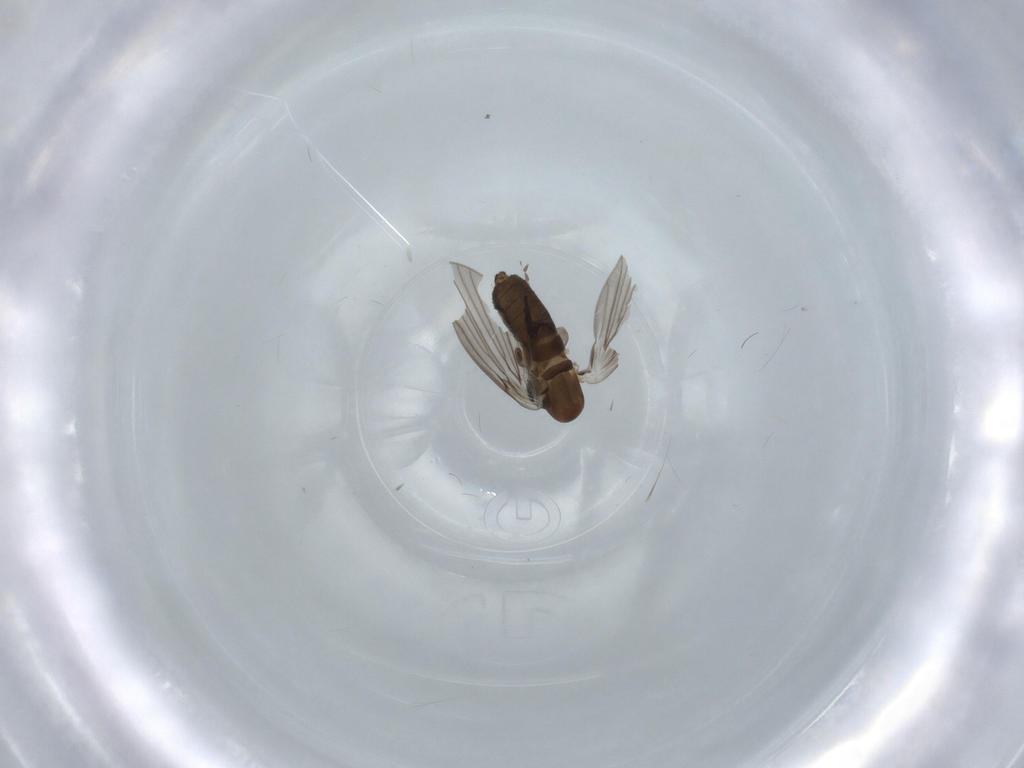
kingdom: Animalia
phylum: Arthropoda
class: Insecta
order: Diptera
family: Psychodidae
